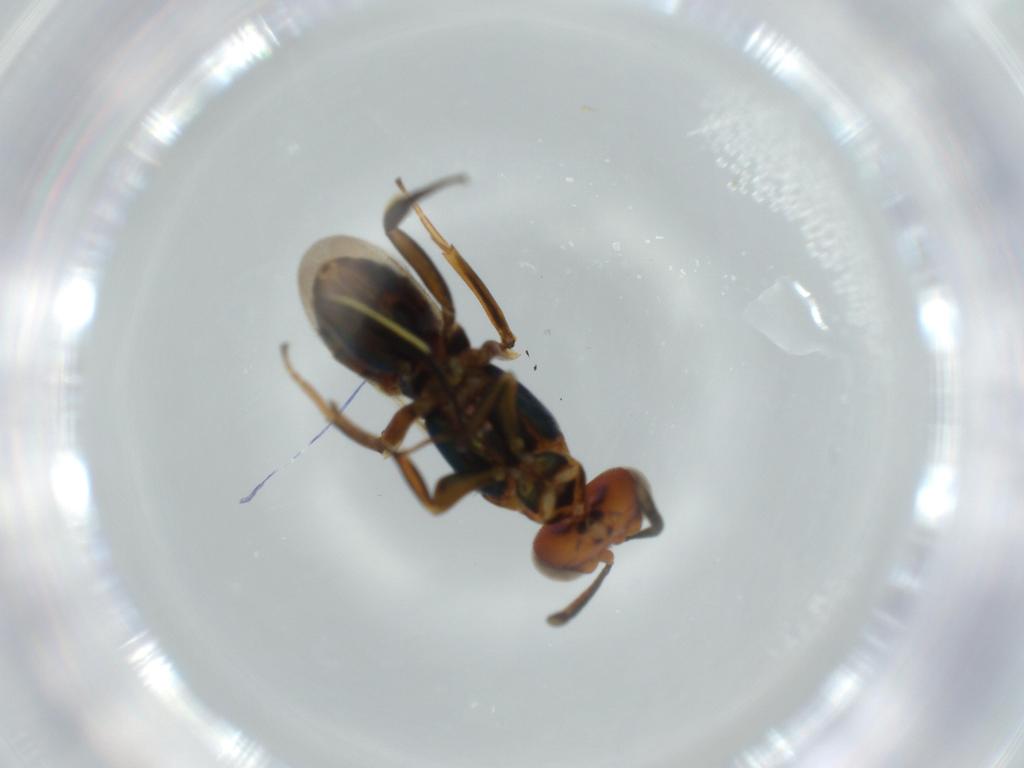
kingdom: Animalia
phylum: Arthropoda
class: Insecta
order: Hymenoptera
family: Eupelmidae
